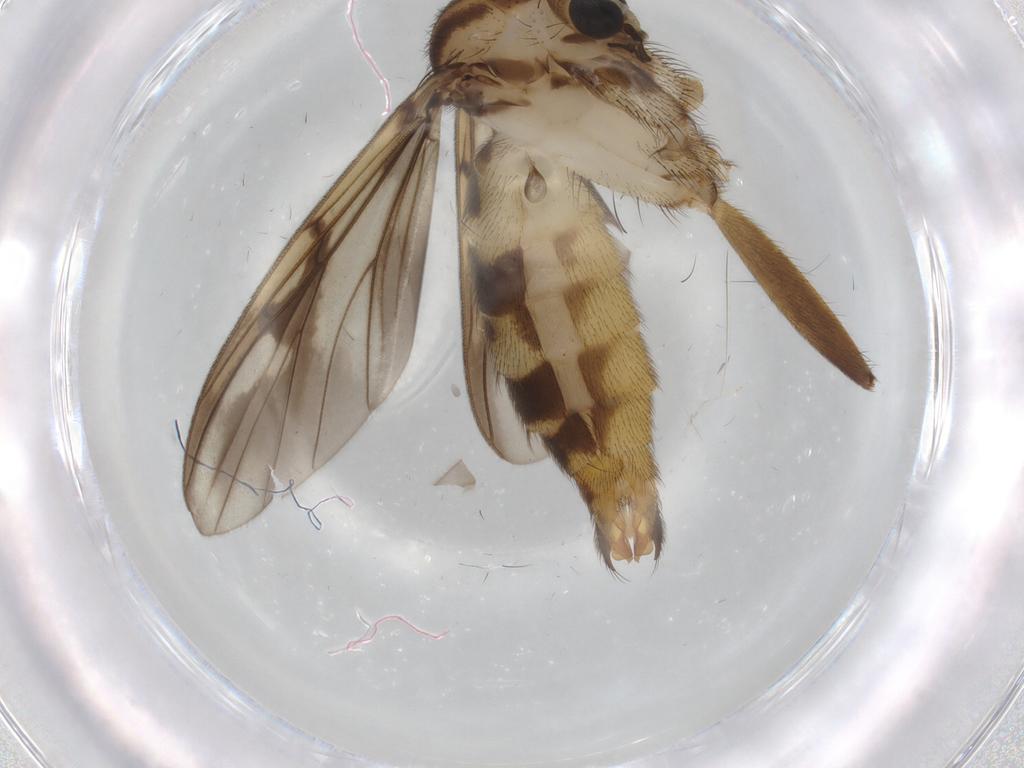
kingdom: Animalia
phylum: Arthropoda
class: Insecta
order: Diptera
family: Mycetophilidae
